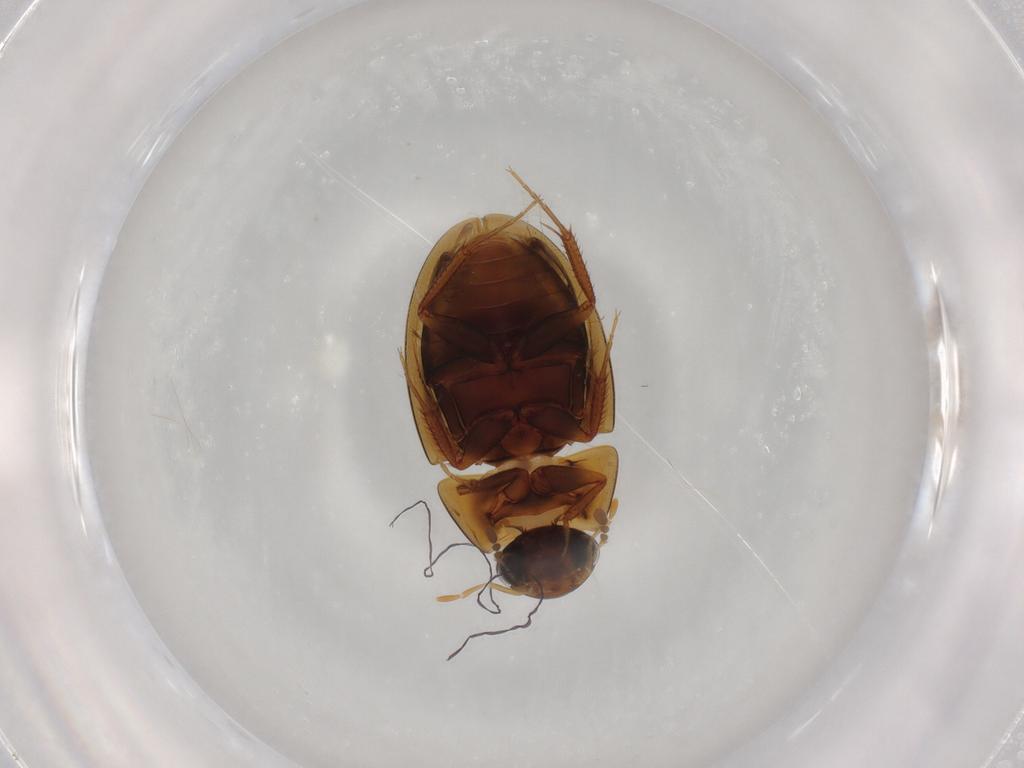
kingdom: Animalia
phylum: Arthropoda
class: Insecta
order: Coleoptera
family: Hydrophilidae
